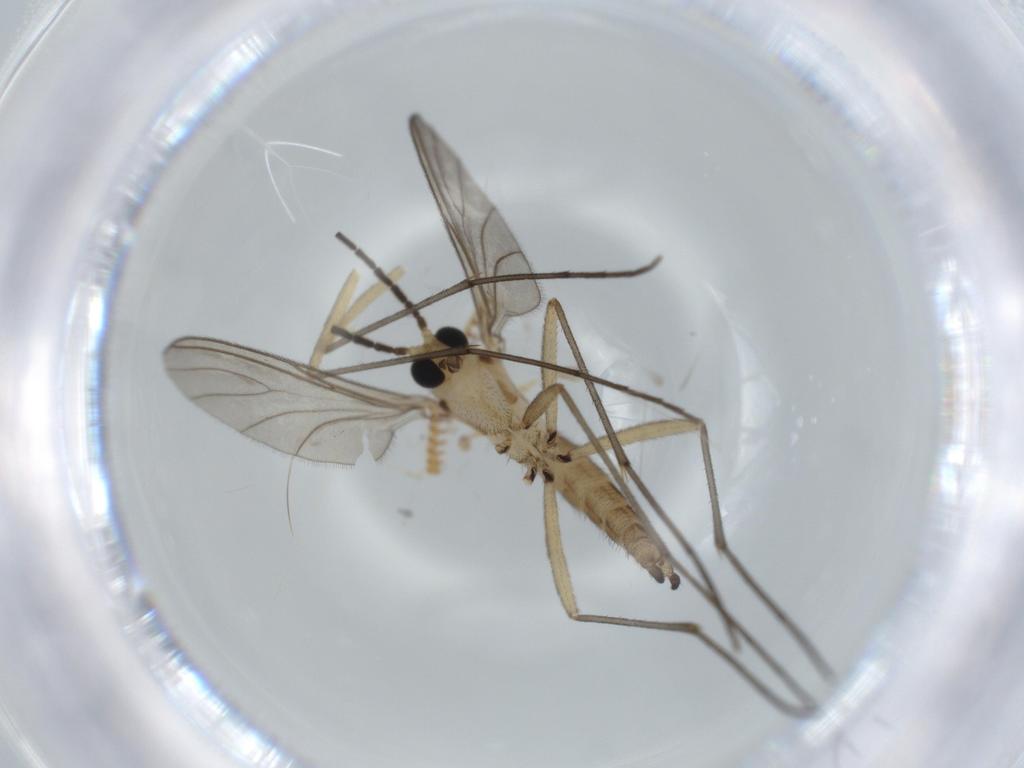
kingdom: Animalia
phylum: Arthropoda
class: Insecta
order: Diptera
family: Sciaridae
